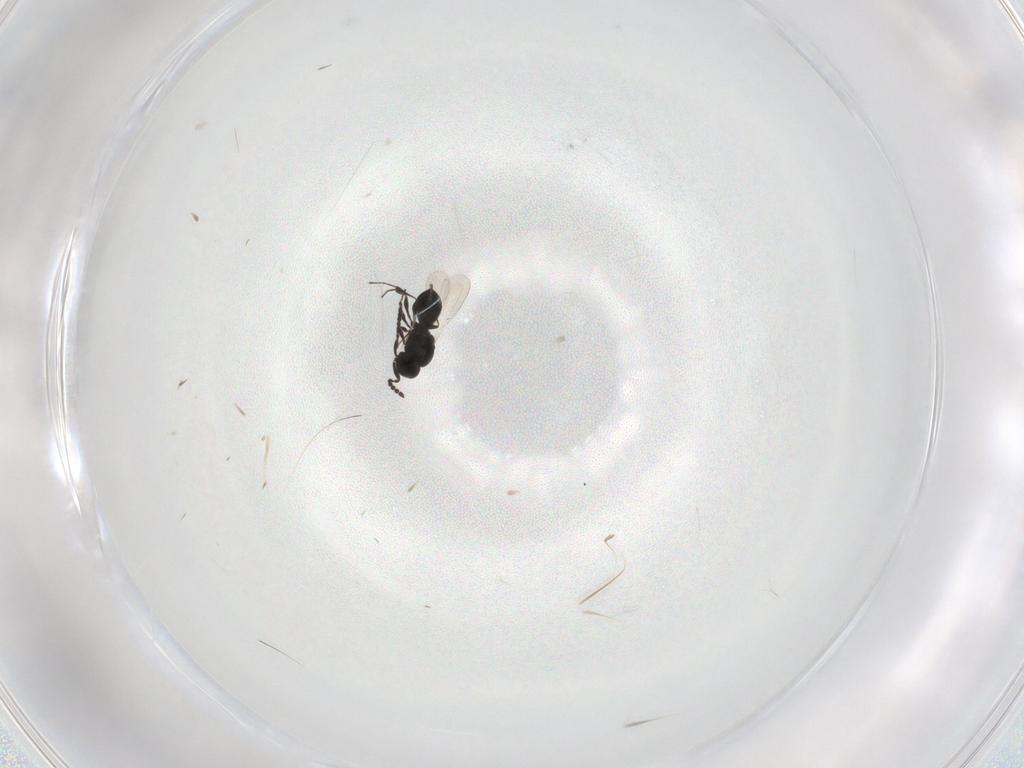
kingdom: Animalia
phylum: Arthropoda
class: Insecta
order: Hymenoptera
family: Platygastridae
